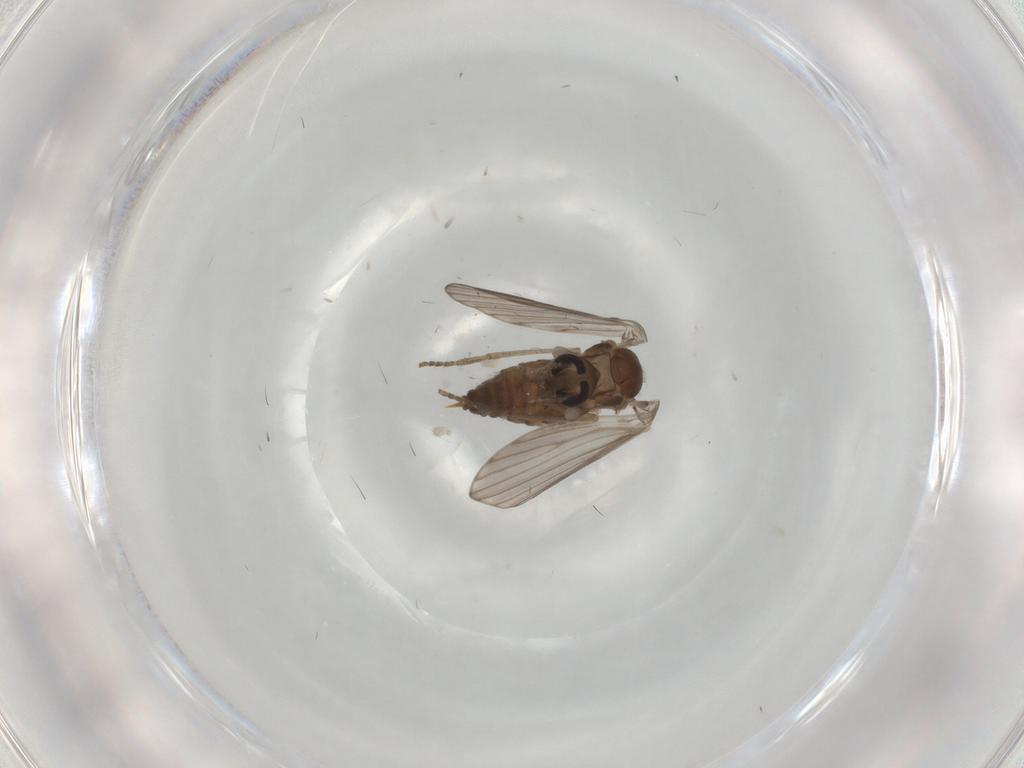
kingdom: Animalia
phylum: Arthropoda
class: Insecta
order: Diptera
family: Psychodidae
